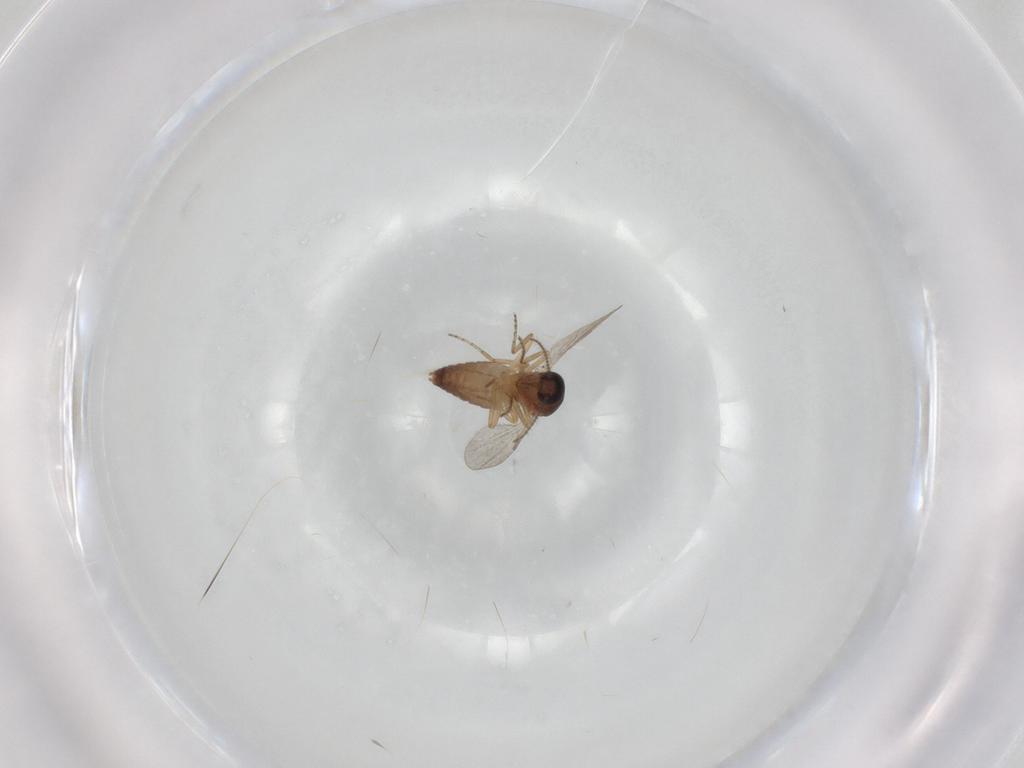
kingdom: Animalia
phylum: Arthropoda
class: Insecta
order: Diptera
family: Ceratopogonidae
